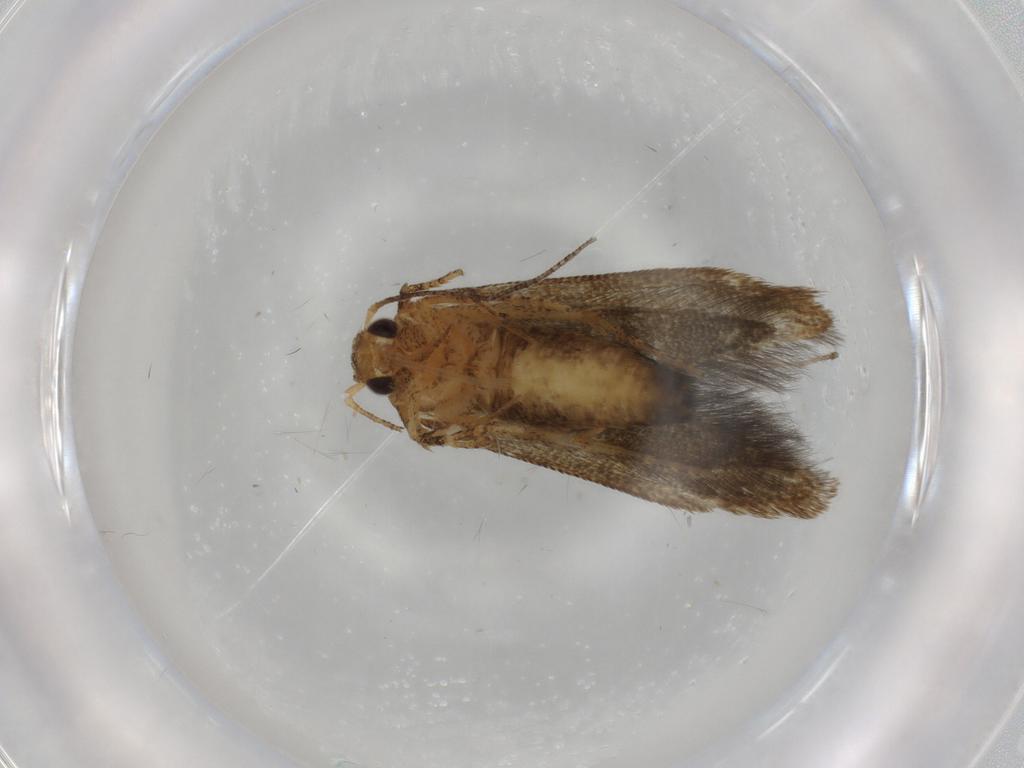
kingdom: Animalia
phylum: Arthropoda
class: Insecta
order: Lepidoptera
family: Blastobasidae
